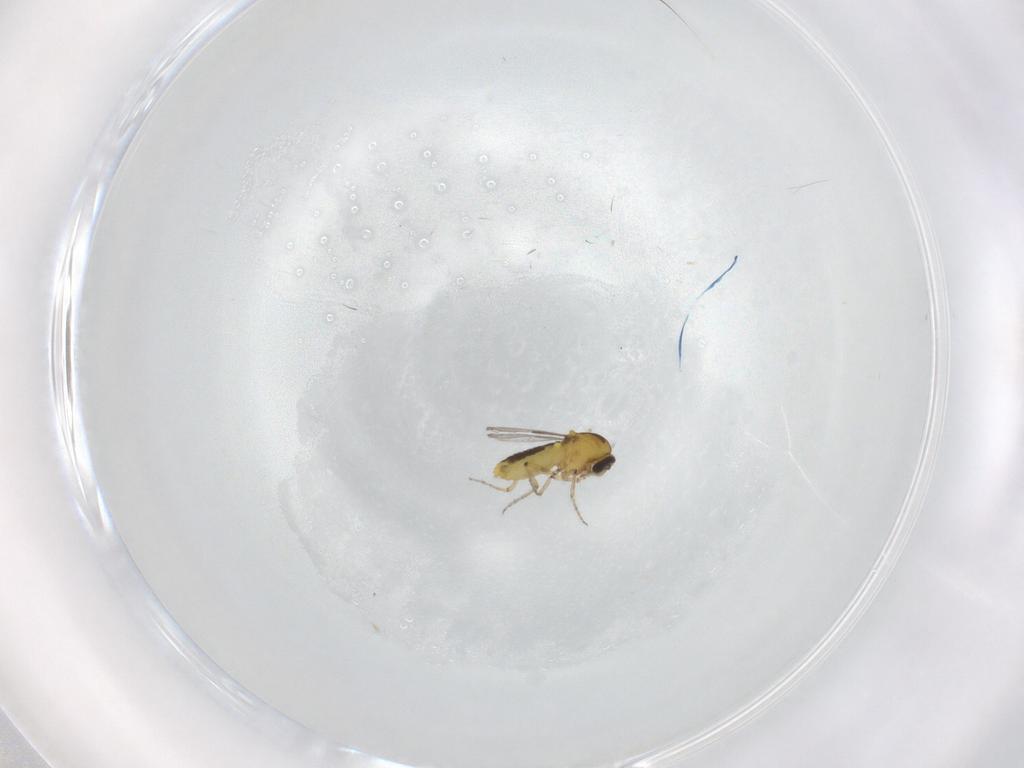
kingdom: Animalia
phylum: Arthropoda
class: Insecta
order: Diptera
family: Ceratopogonidae
